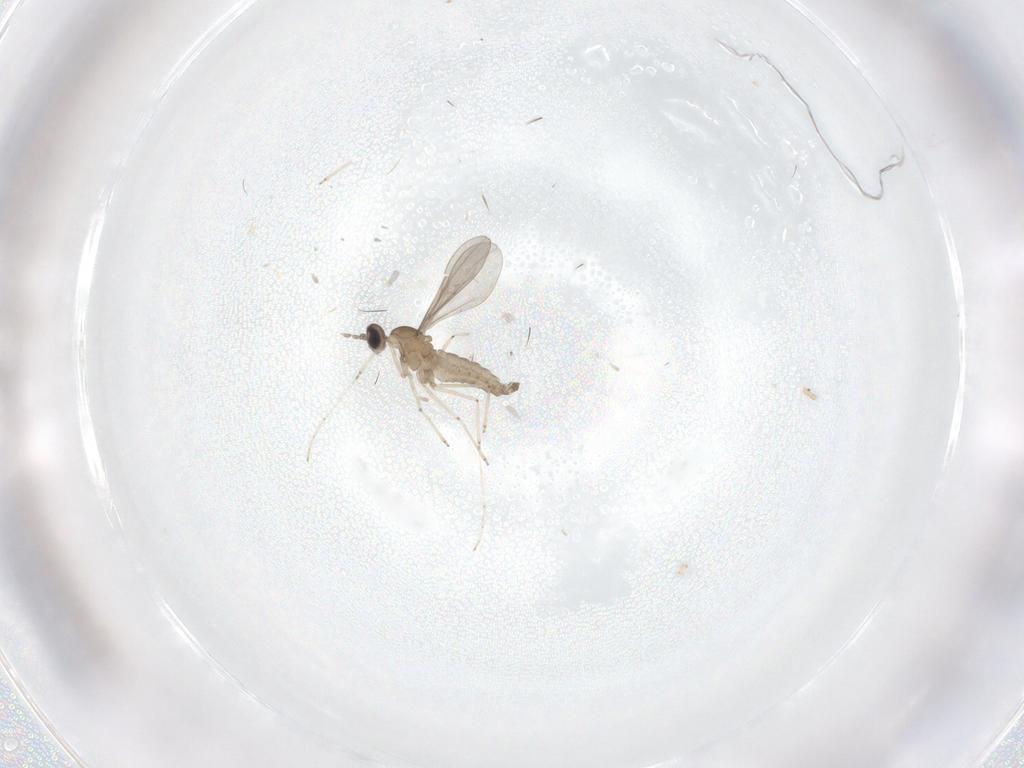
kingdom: Animalia
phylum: Arthropoda
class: Insecta
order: Diptera
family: Cecidomyiidae
